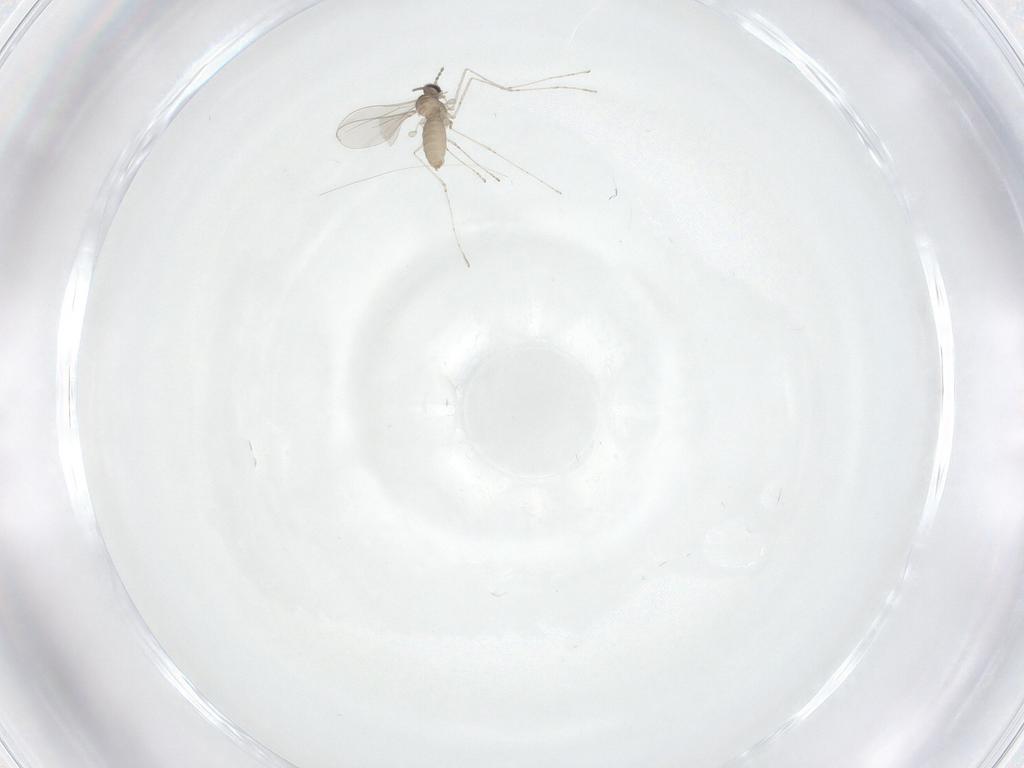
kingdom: Animalia
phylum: Arthropoda
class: Insecta
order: Diptera
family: Cecidomyiidae
